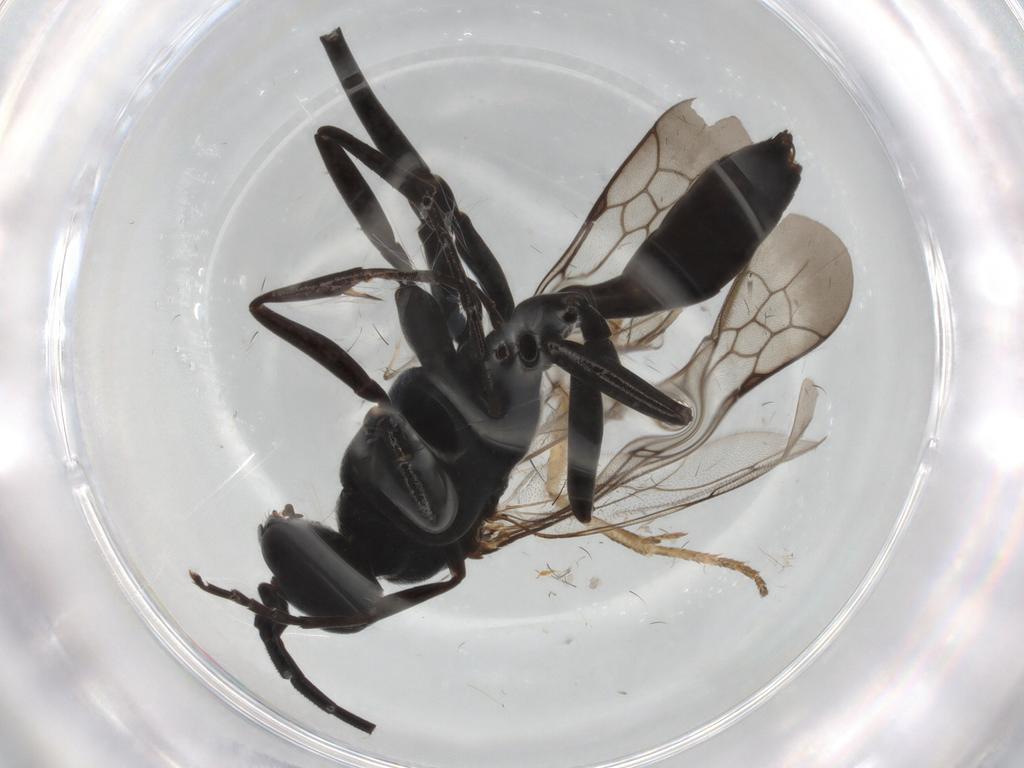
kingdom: Animalia
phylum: Arthropoda
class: Insecta
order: Hymenoptera
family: Pompilidae
